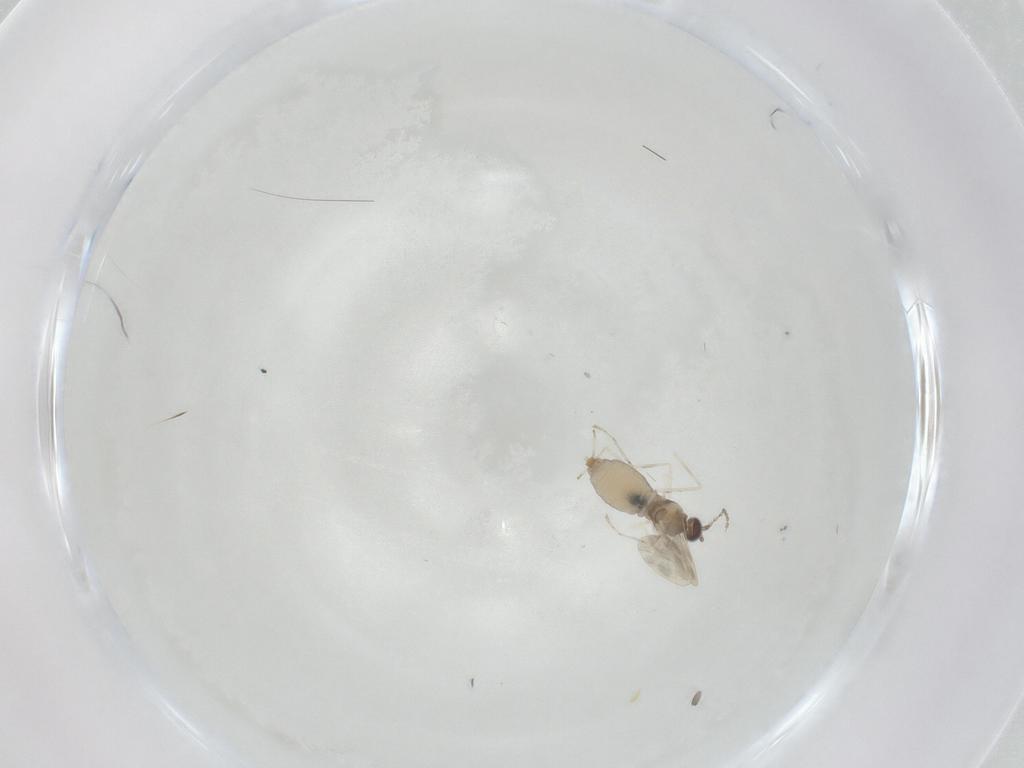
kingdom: Animalia
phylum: Arthropoda
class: Insecta
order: Diptera
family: Cecidomyiidae
